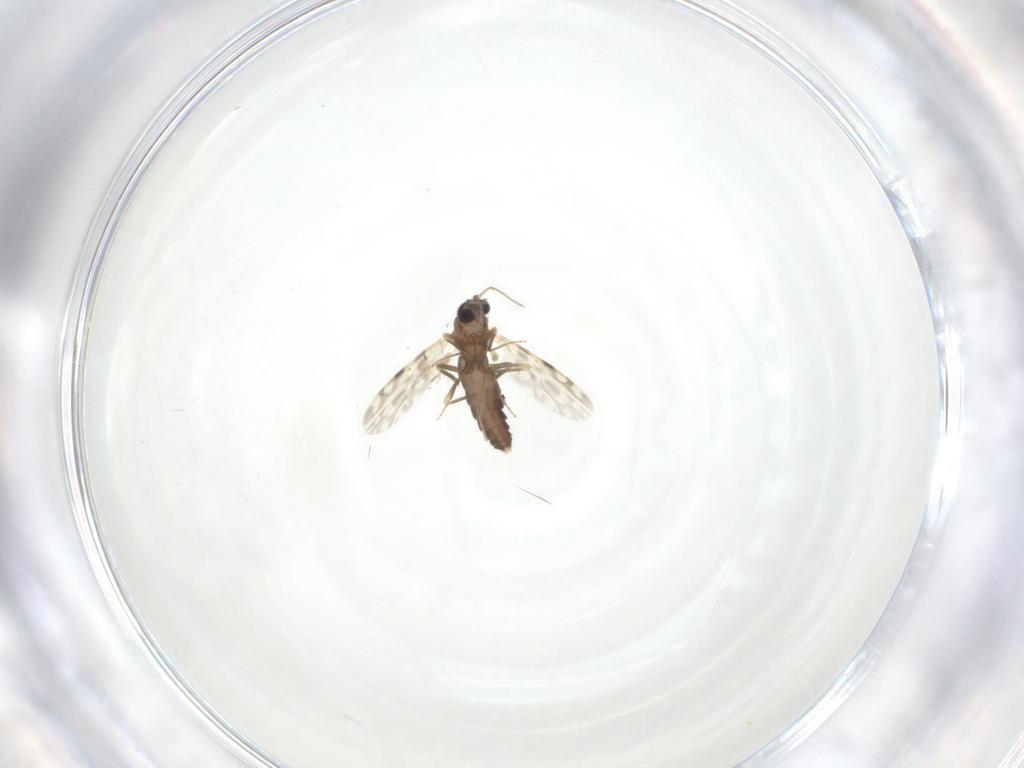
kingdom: Animalia
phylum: Arthropoda
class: Insecta
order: Diptera
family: Ceratopogonidae
